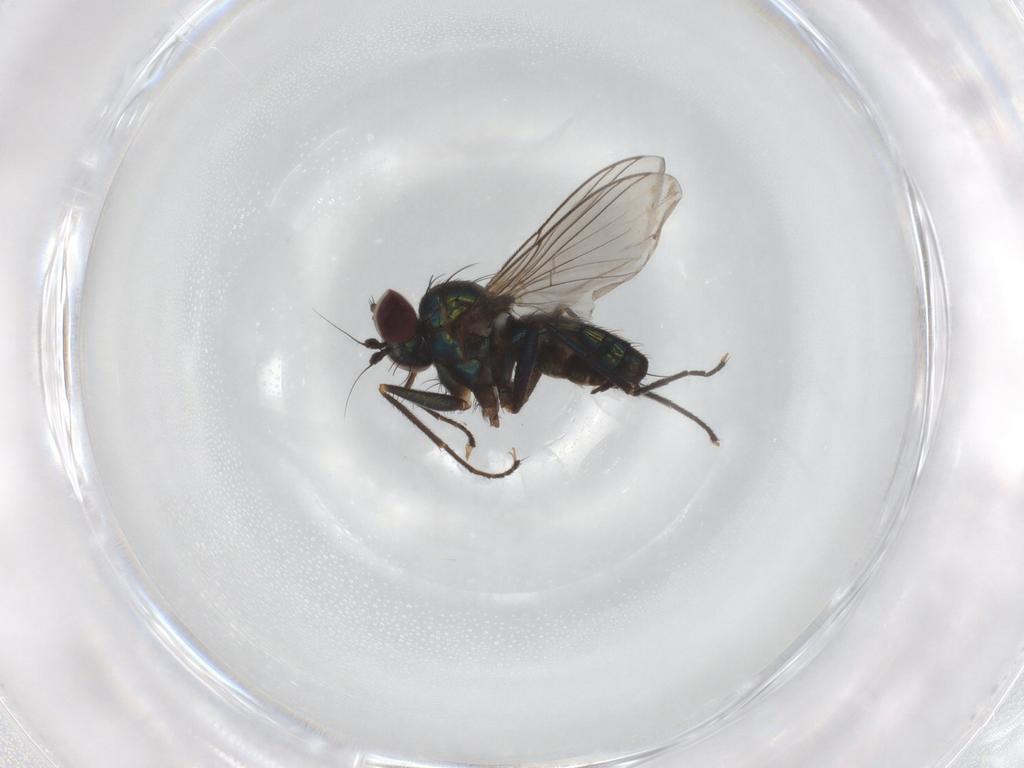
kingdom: Animalia
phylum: Arthropoda
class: Insecta
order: Diptera
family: Dolichopodidae
